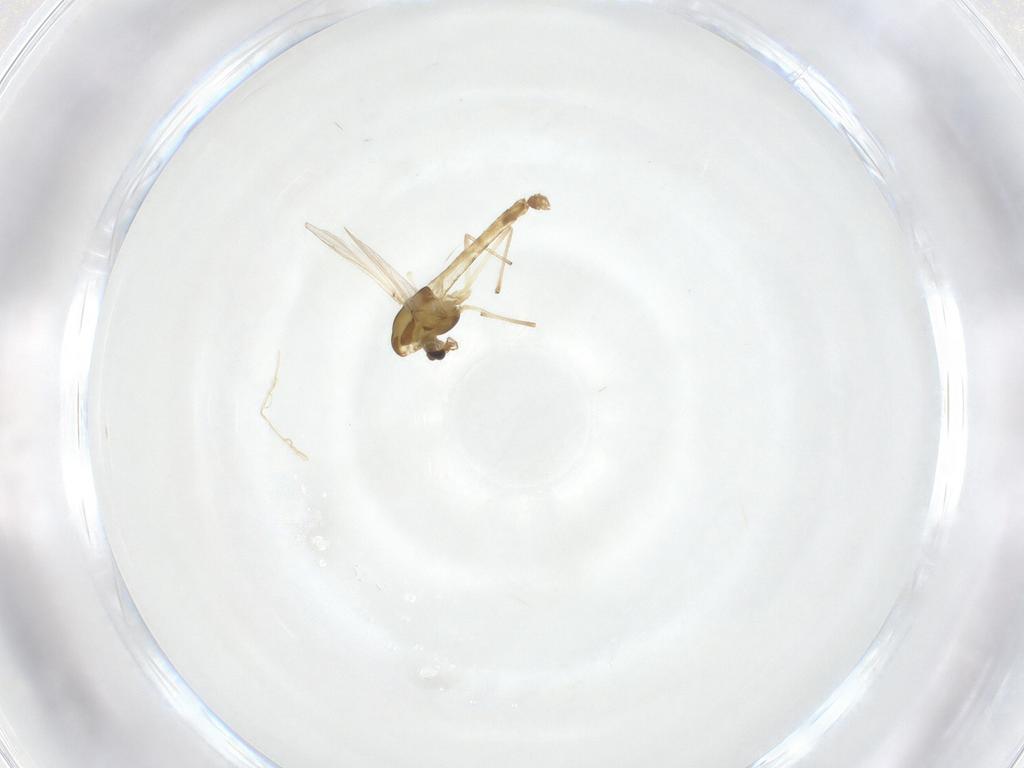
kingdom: Animalia
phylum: Arthropoda
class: Insecta
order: Diptera
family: Chironomidae
